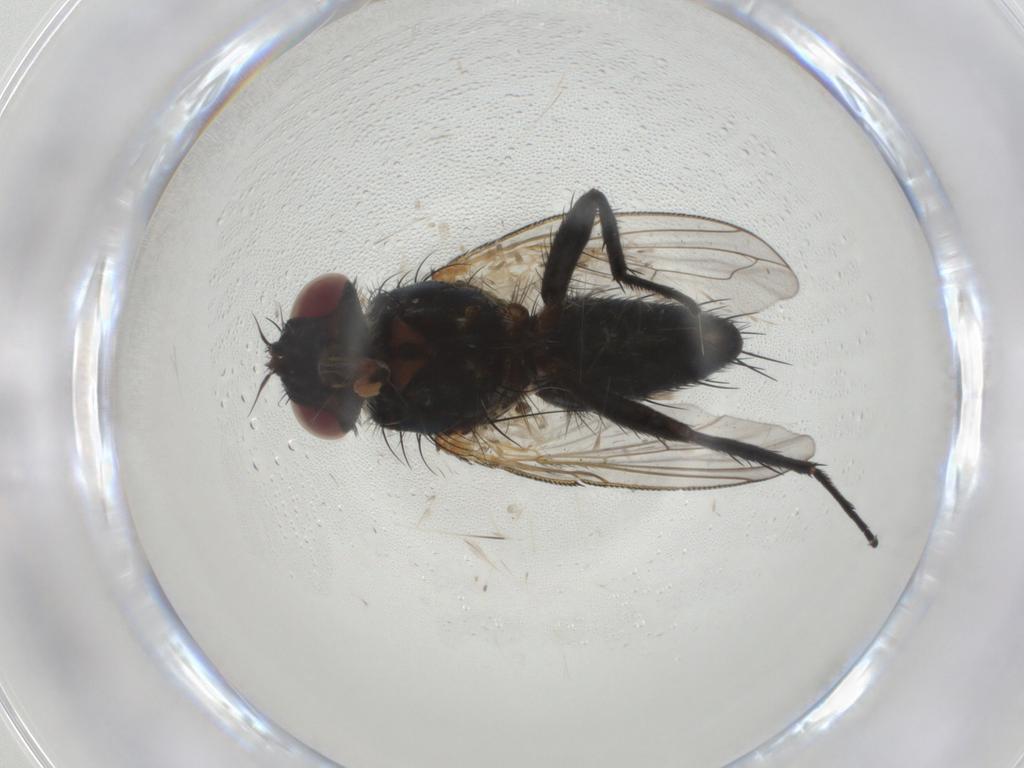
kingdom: Animalia
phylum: Arthropoda
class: Insecta
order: Diptera
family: Tachinidae
